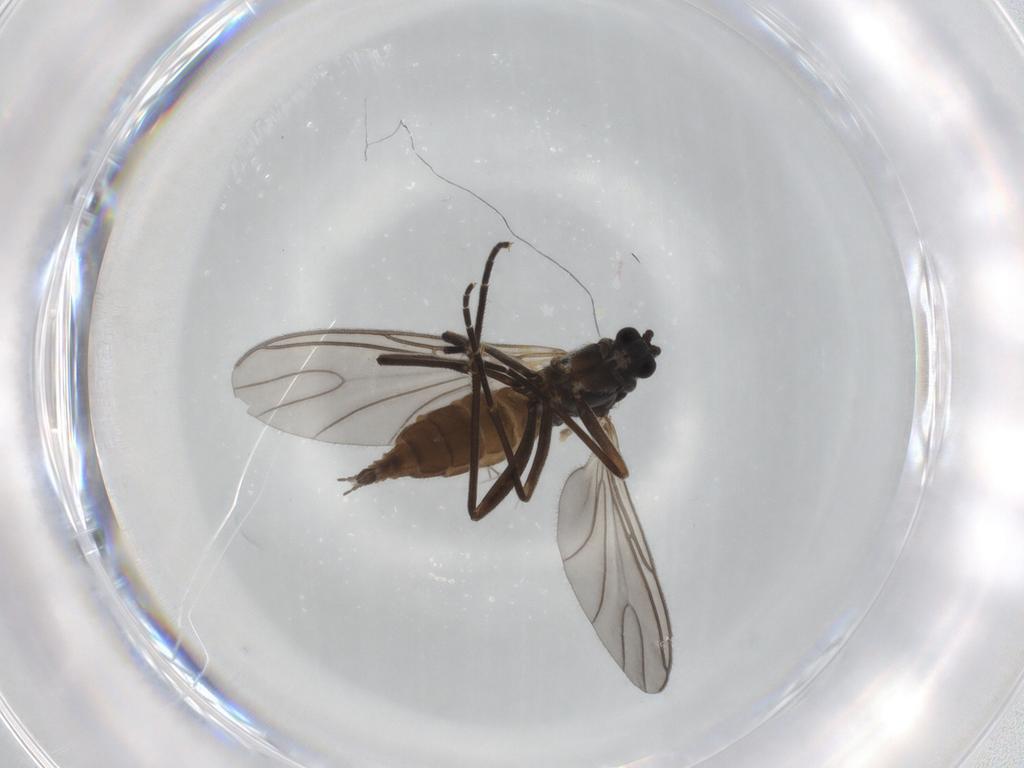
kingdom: Animalia
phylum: Arthropoda
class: Insecta
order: Diptera
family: Sciaridae
